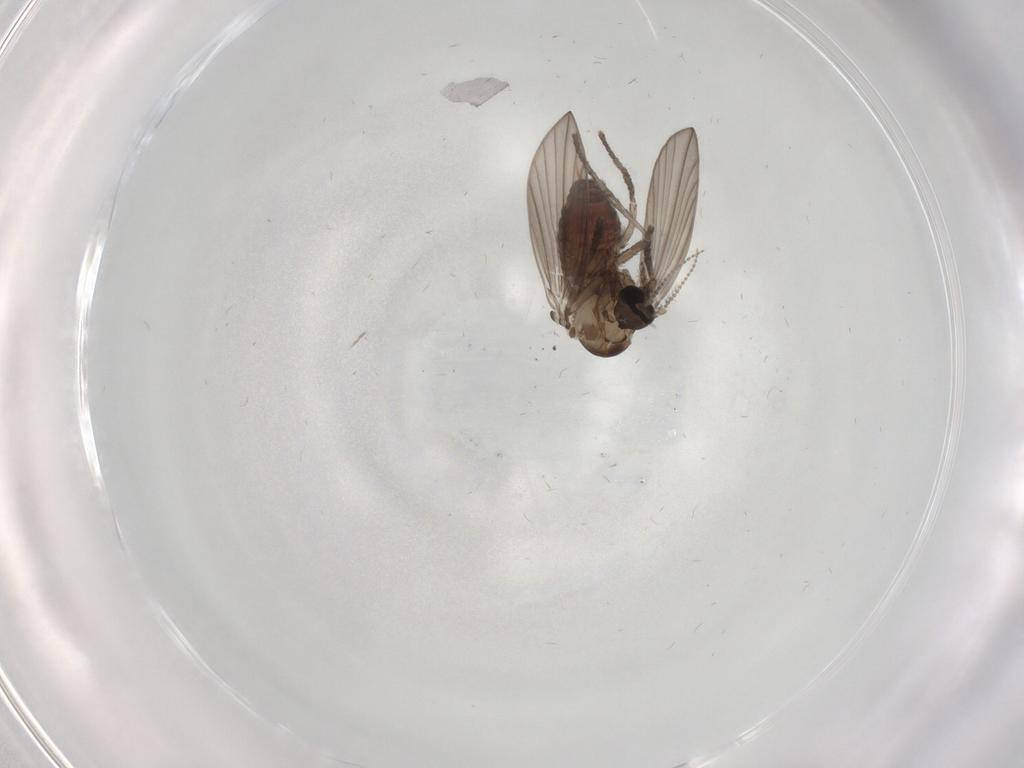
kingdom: Animalia
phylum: Arthropoda
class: Insecta
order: Diptera
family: Psychodidae
